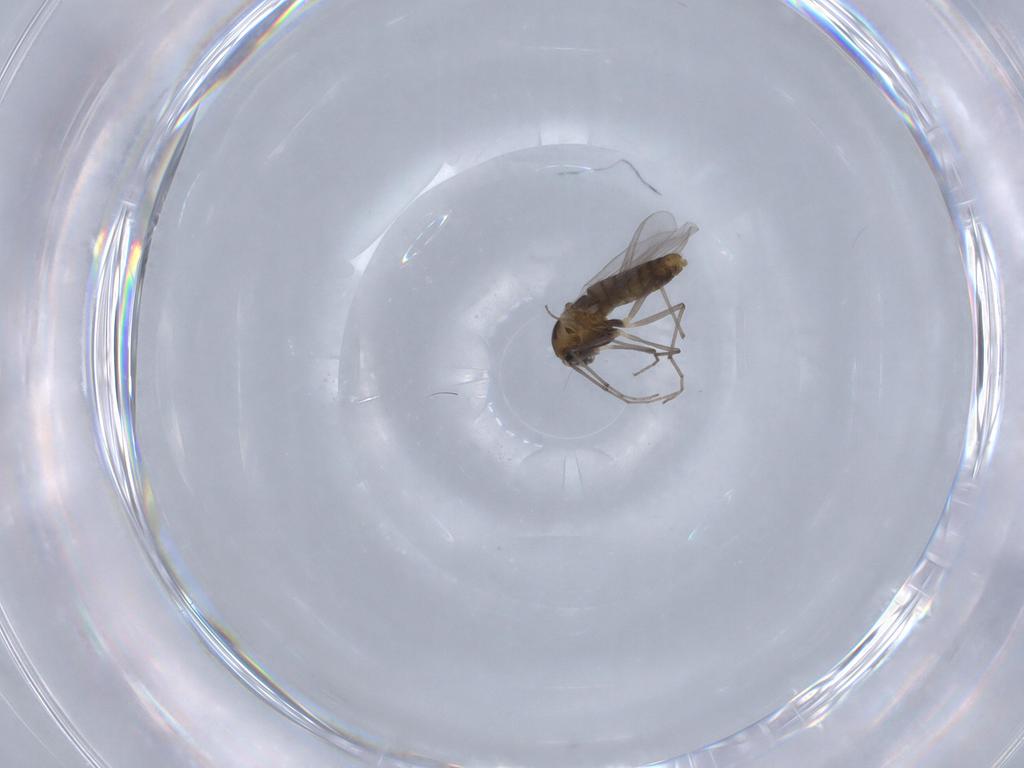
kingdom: Animalia
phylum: Arthropoda
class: Insecta
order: Diptera
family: Chironomidae
